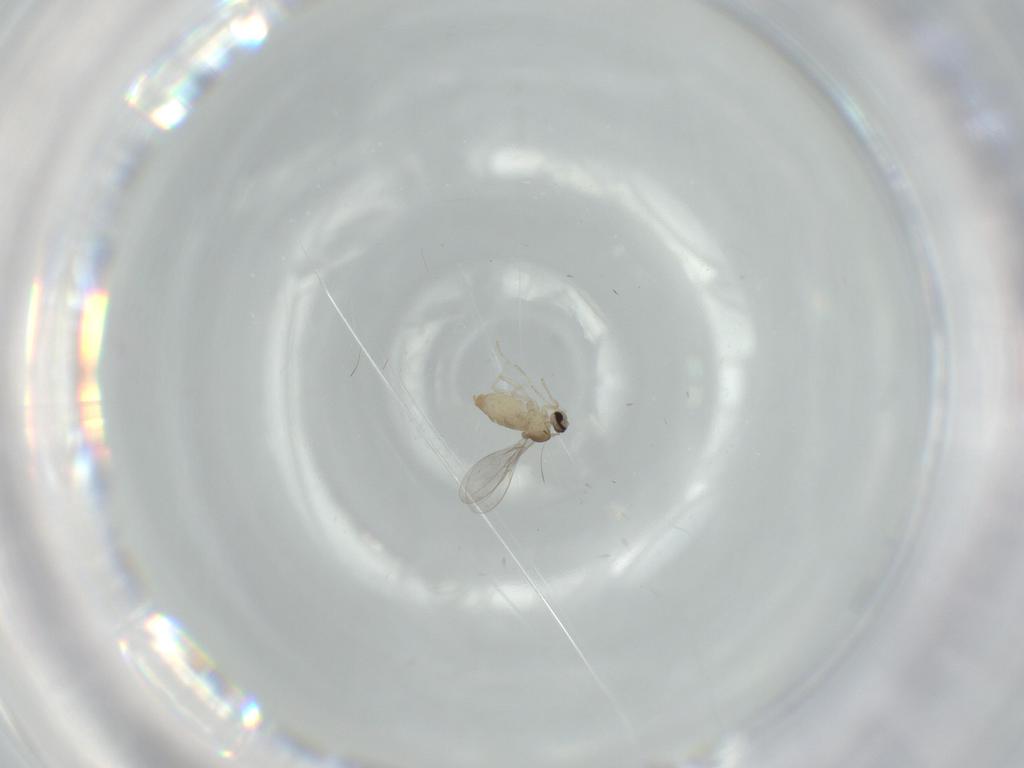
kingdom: Animalia
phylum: Arthropoda
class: Insecta
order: Diptera
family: Cecidomyiidae
